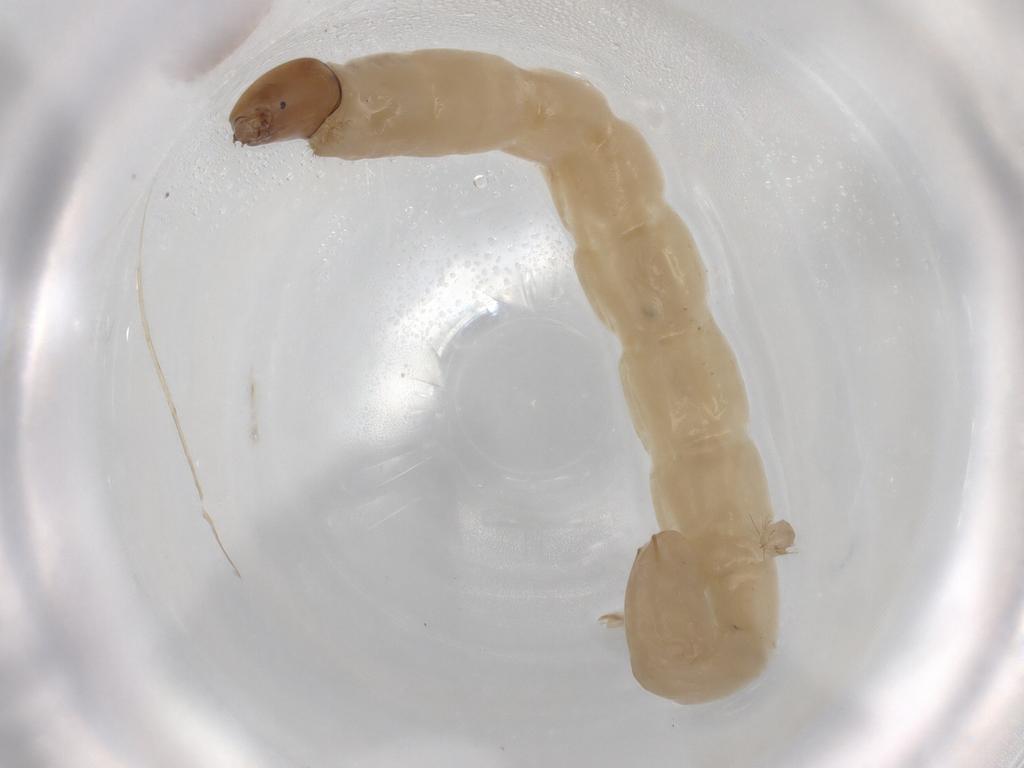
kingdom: Animalia
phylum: Arthropoda
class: Insecta
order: Diptera
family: Chironomidae
